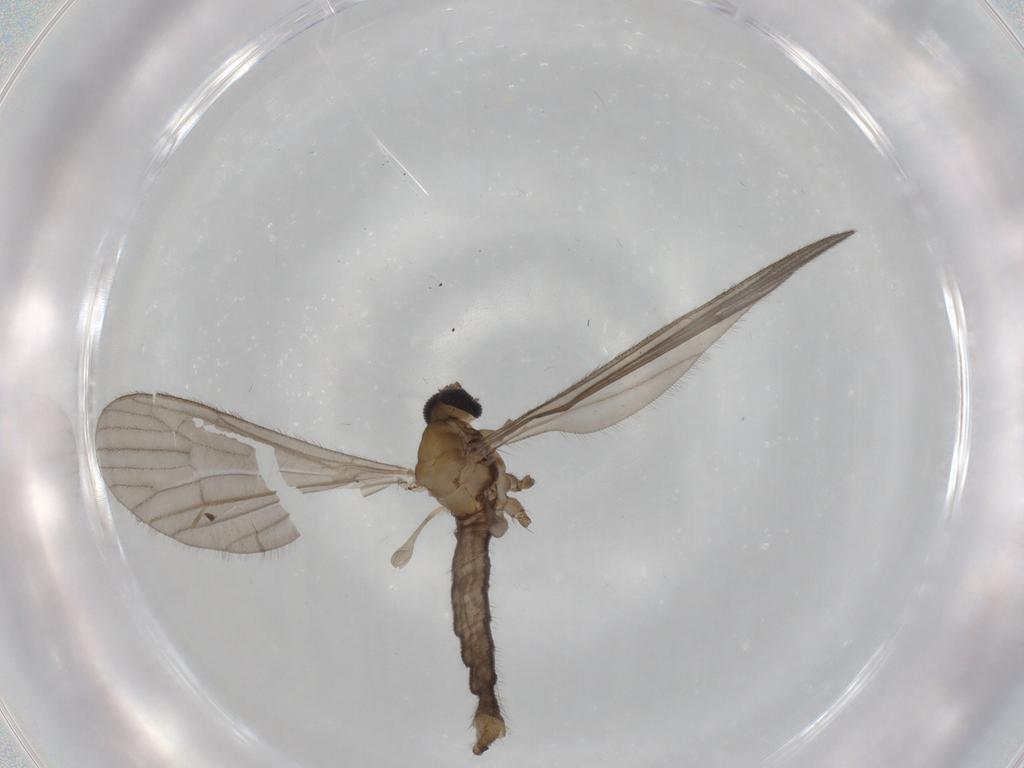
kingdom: Animalia
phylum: Arthropoda
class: Insecta
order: Diptera
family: Limoniidae
